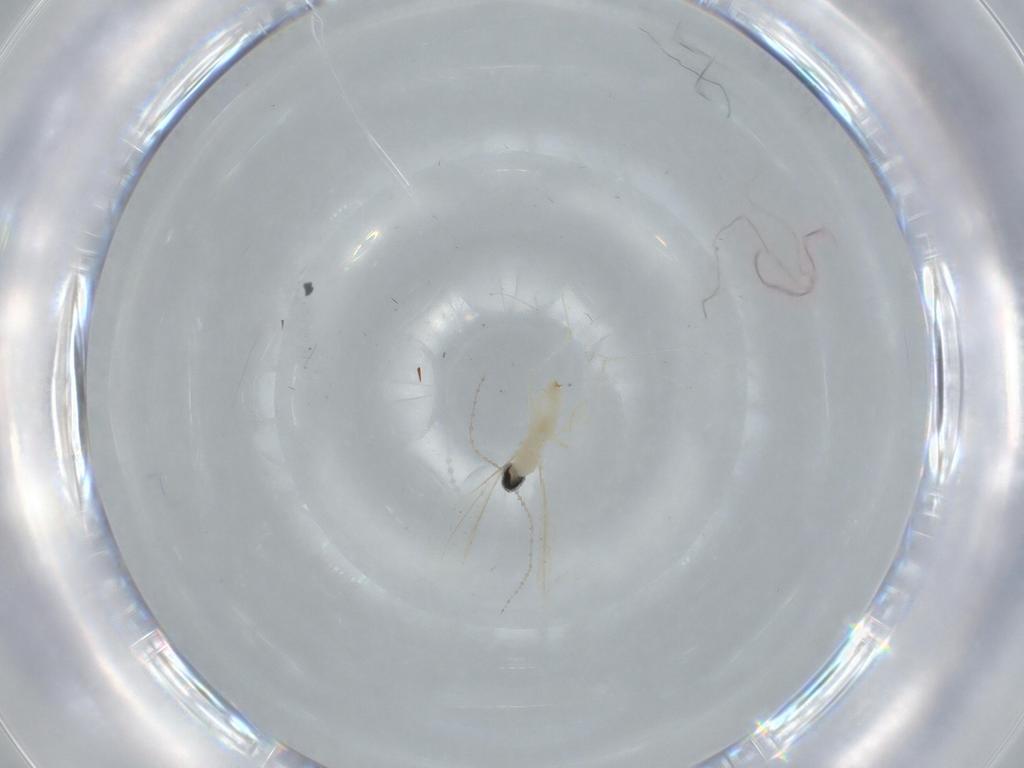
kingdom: Animalia
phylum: Arthropoda
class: Insecta
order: Diptera
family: Cecidomyiidae
